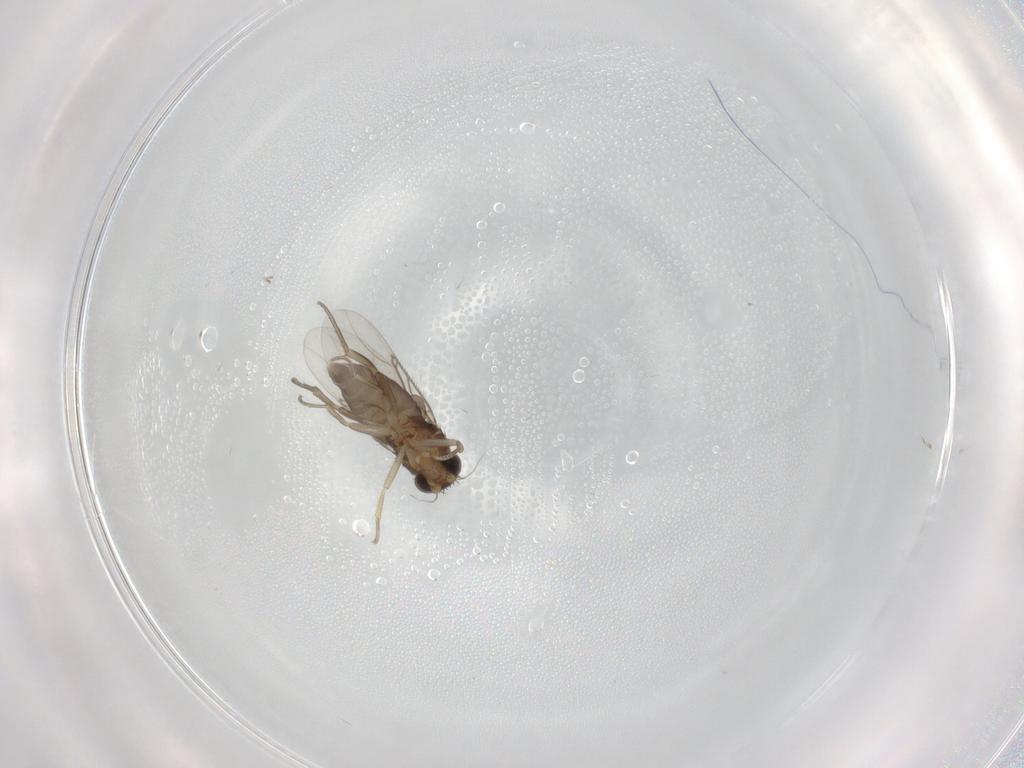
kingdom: Animalia
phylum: Arthropoda
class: Insecta
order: Diptera
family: Phoridae
